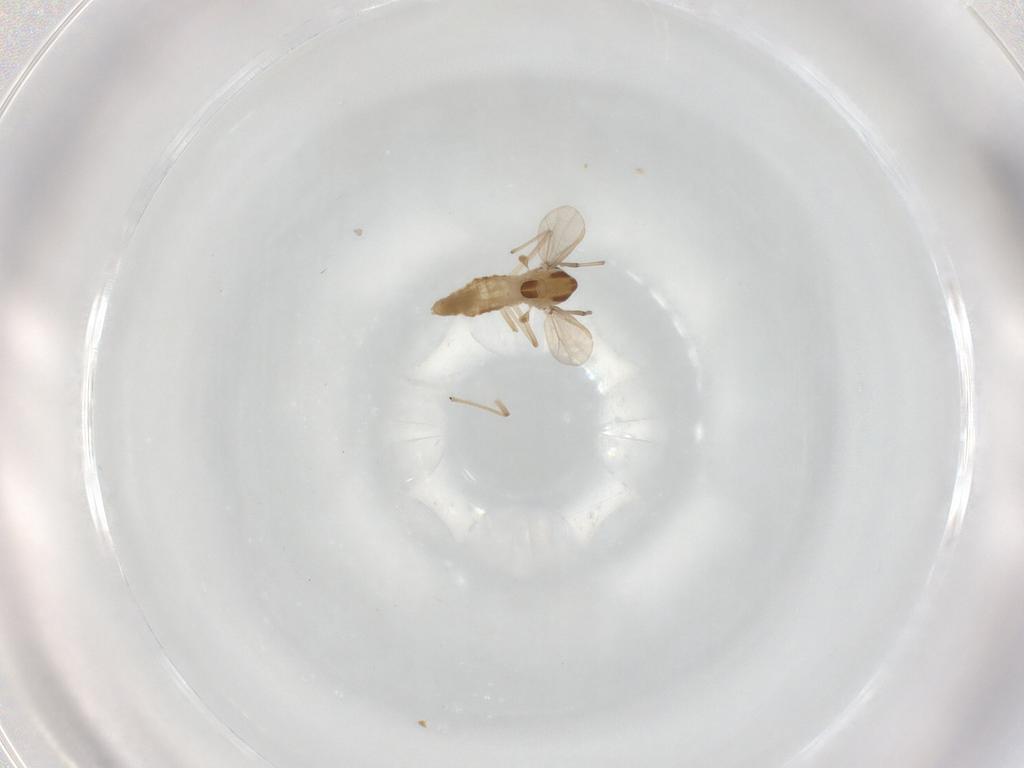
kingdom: Animalia
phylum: Arthropoda
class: Insecta
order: Diptera
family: Chironomidae
